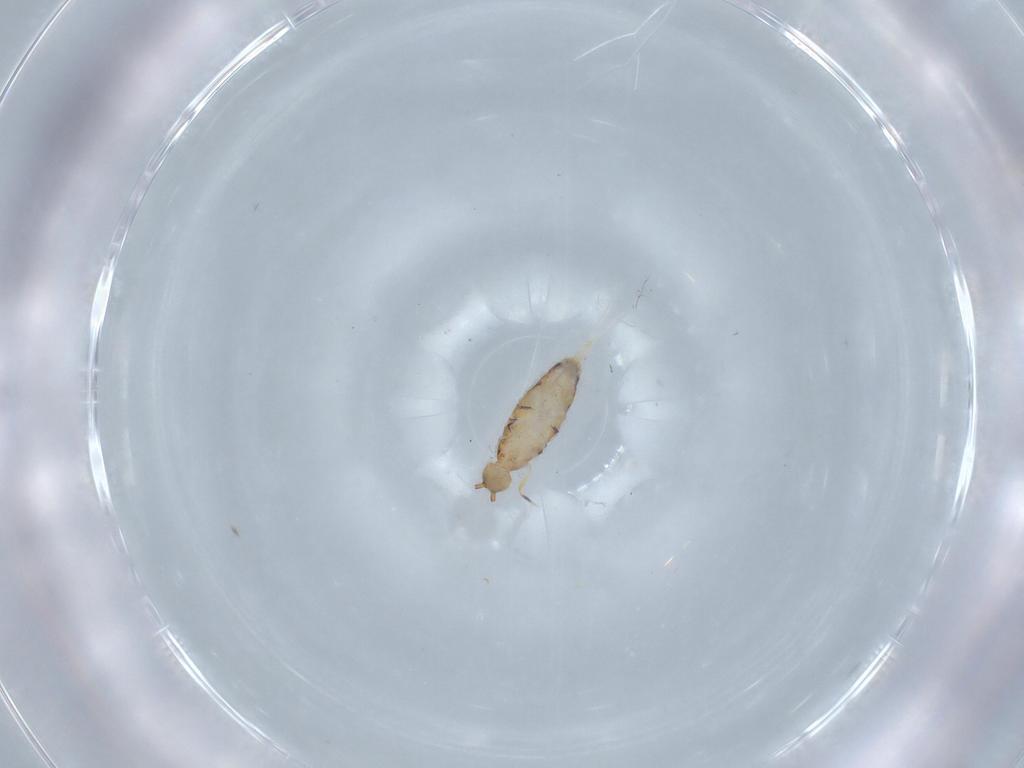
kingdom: Animalia
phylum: Arthropoda
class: Collembola
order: Entomobryomorpha
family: Entomobryidae
